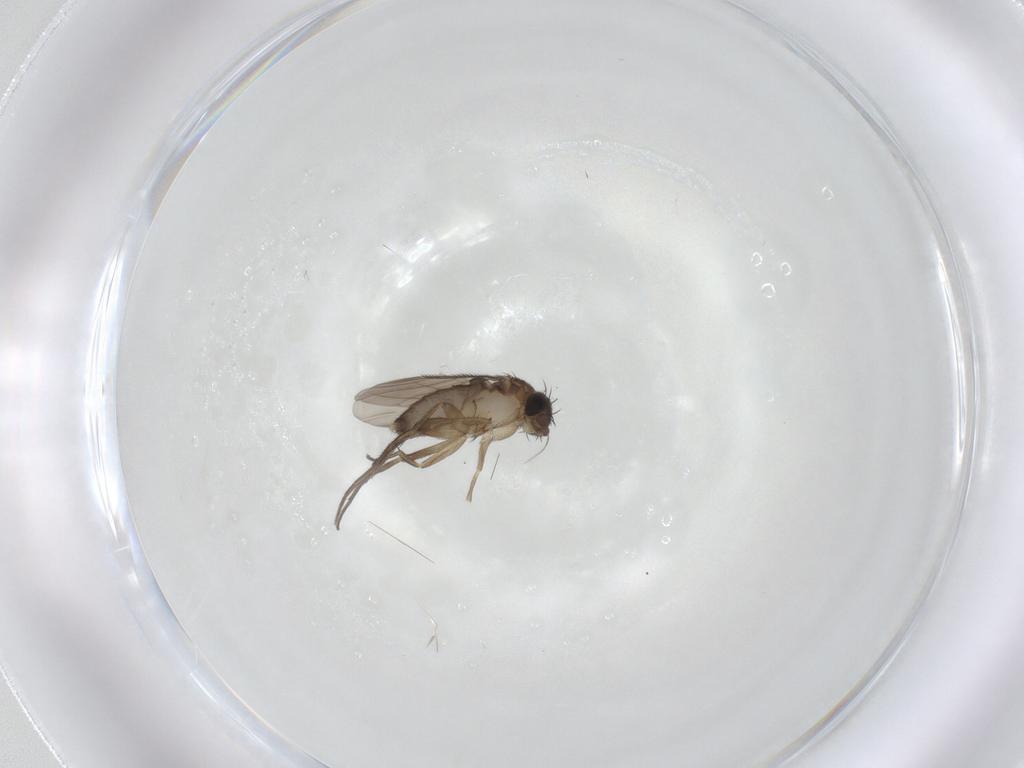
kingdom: Animalia
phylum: Arthropoda
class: Insecta
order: Diptera
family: Phoridae
